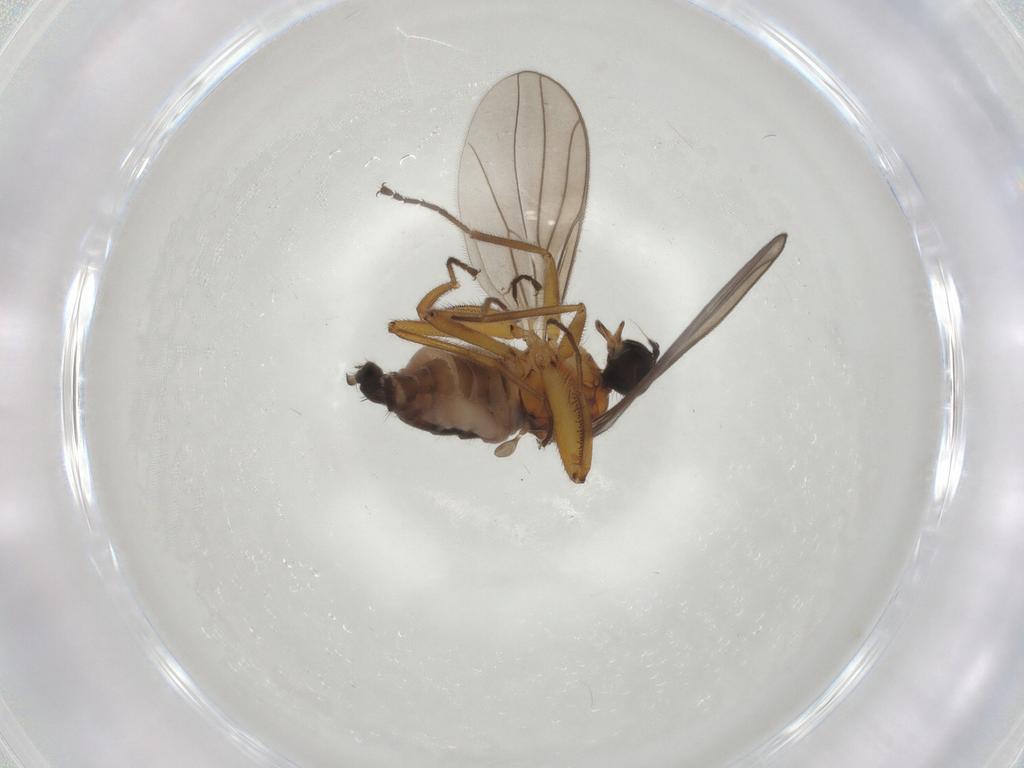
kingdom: Animalia
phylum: Arthropoda
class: Insecta
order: Diptera
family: Hybotidae
